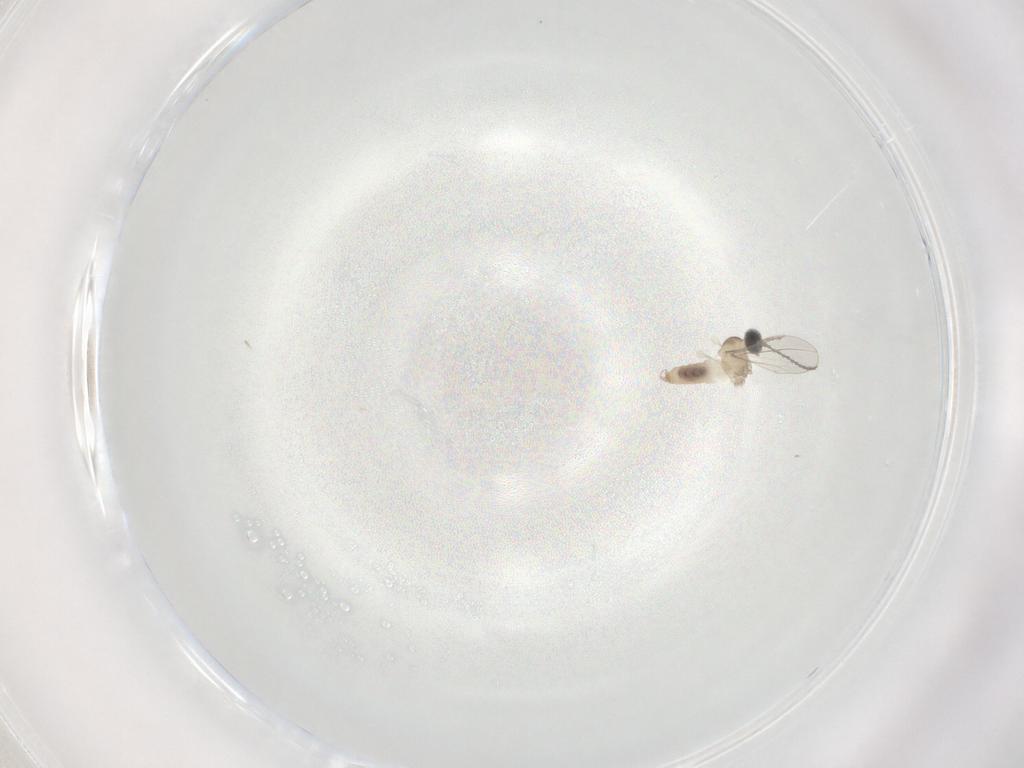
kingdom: Animalia
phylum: Arthropoda
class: Insecta
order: Diptera
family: Cecidomyiidae
